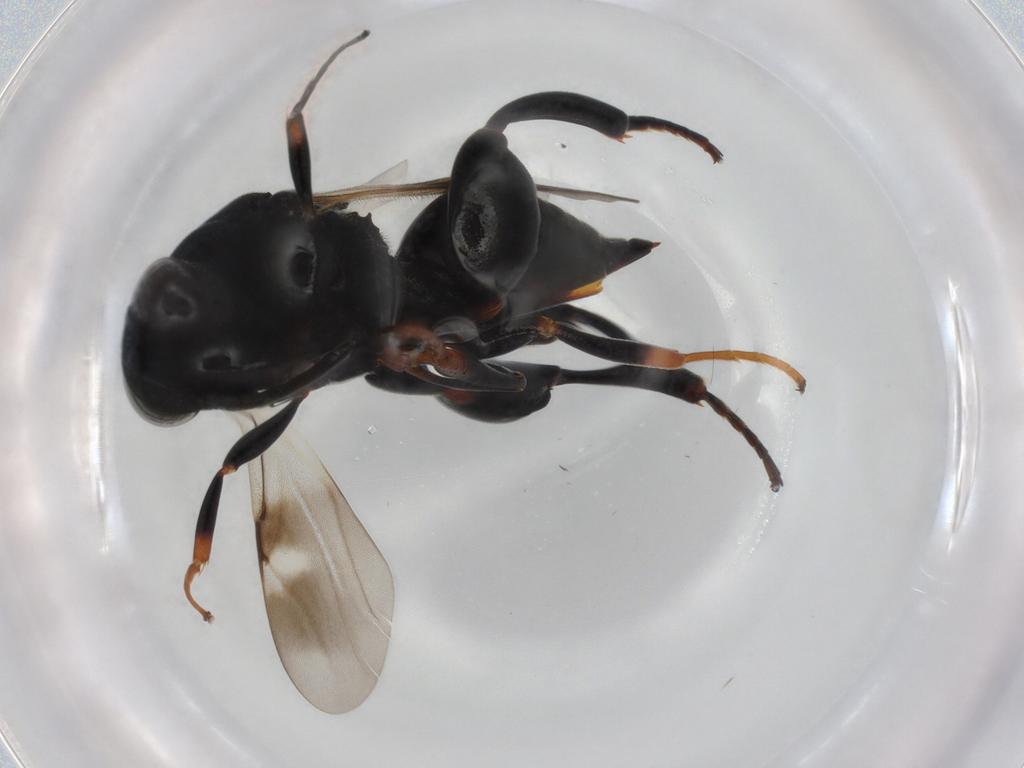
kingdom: Animalia
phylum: Arthropoda
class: Insecta
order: Hymenoptera
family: Chalcididae
